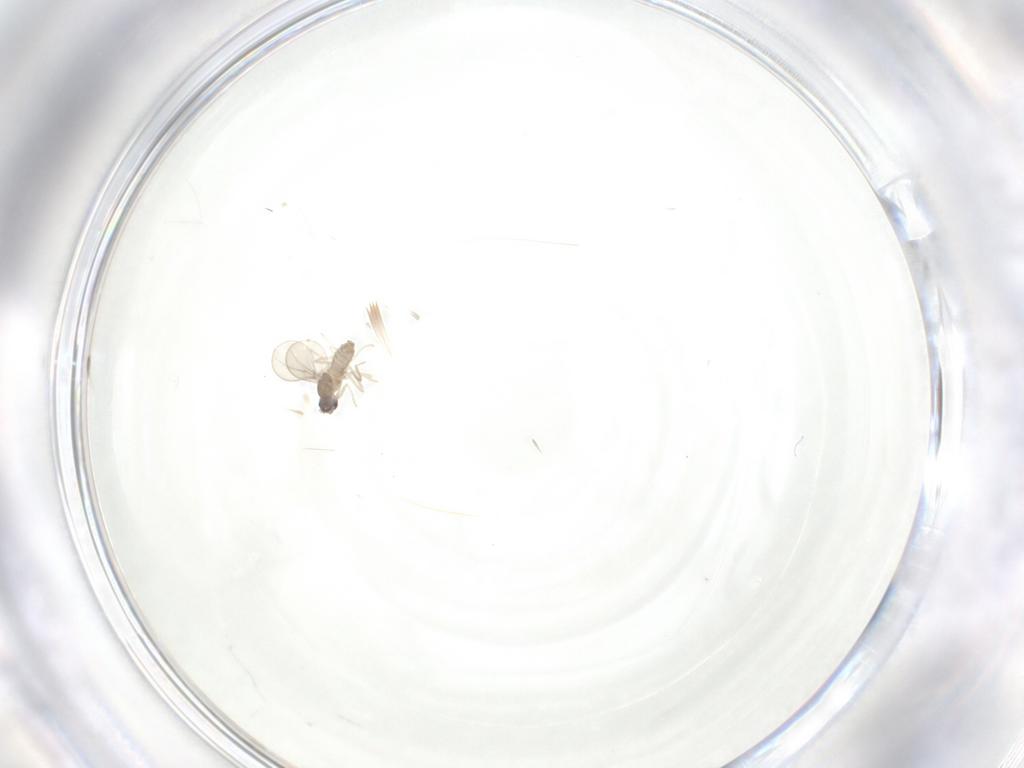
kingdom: Animalia
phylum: Arthropoda
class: Insecta
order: Diptera
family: Cecidomyiidae
